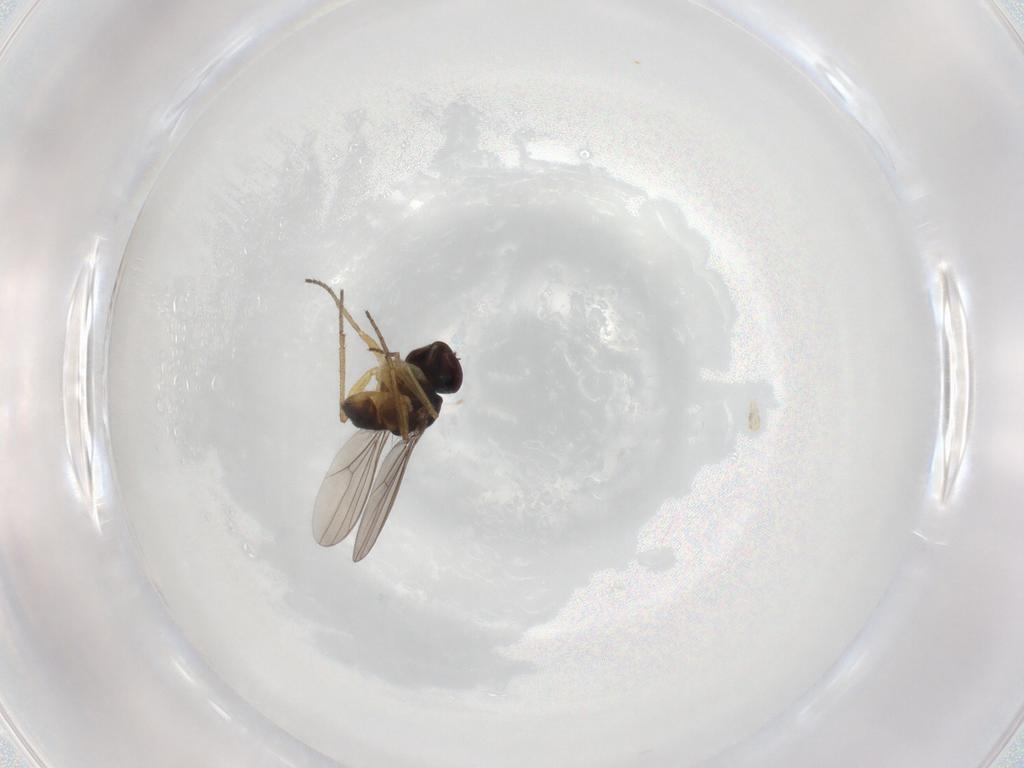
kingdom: Animalia
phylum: Arthropoda
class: Insecta
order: Diptera
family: Dolichopodidae
